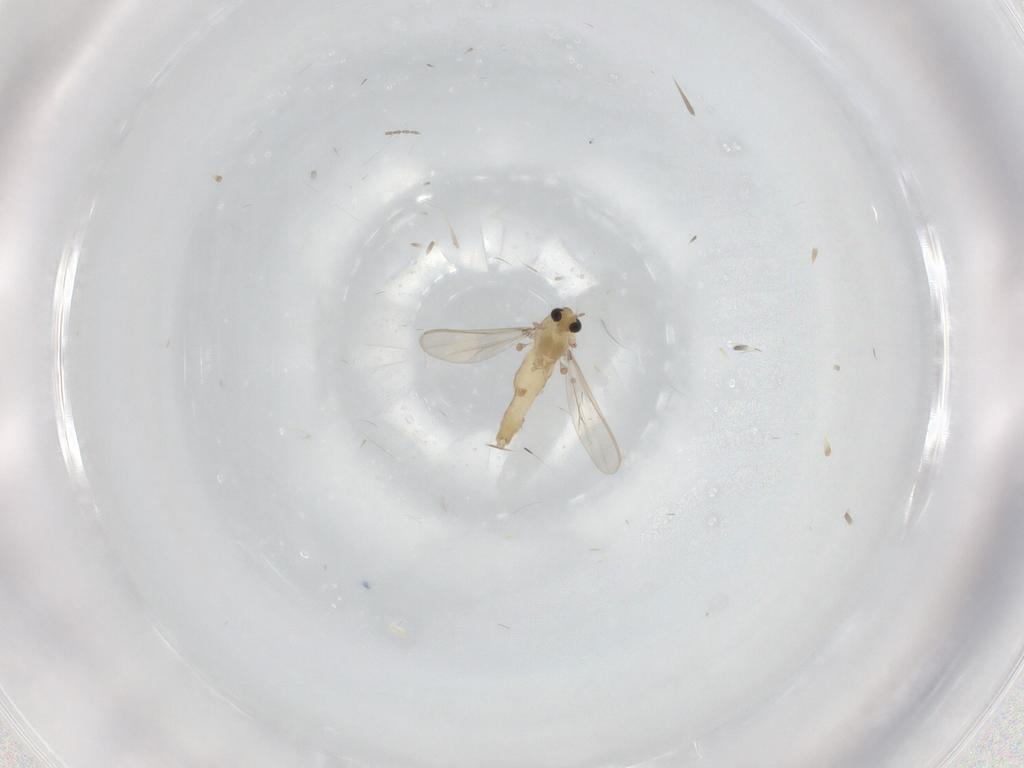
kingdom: Animalia
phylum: Arthropoda
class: Insecta
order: Diptera
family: Chironomidae
